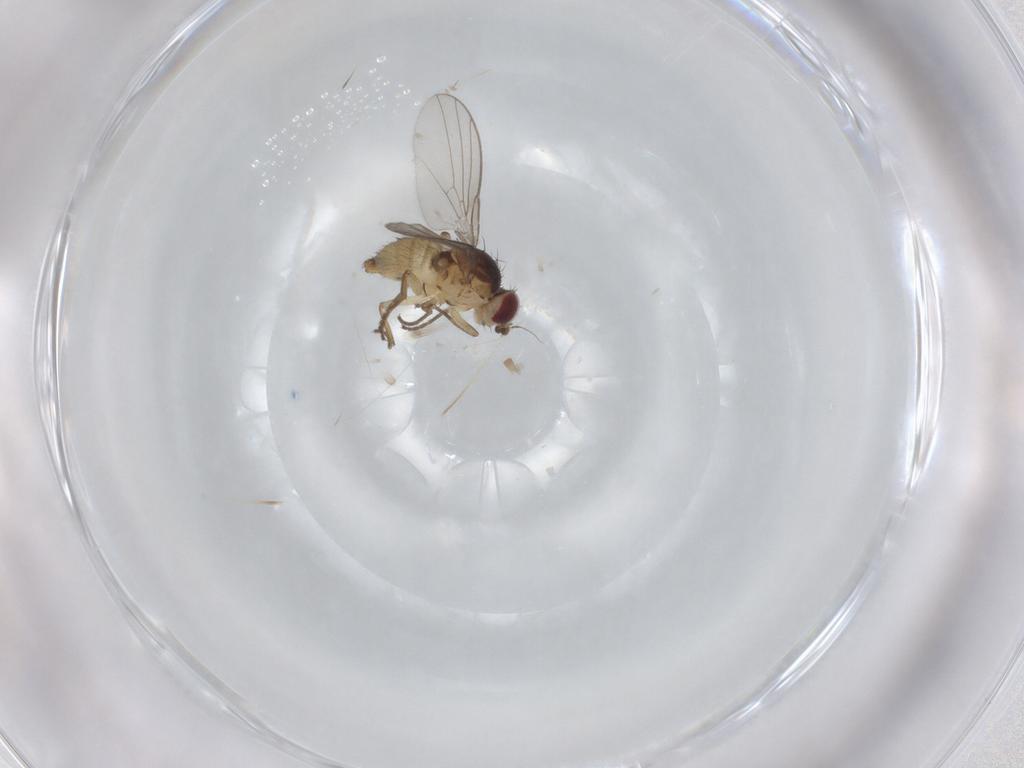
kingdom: Animalia
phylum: Arthropoda
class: Insecta
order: Diptera
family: Agromyzidae
